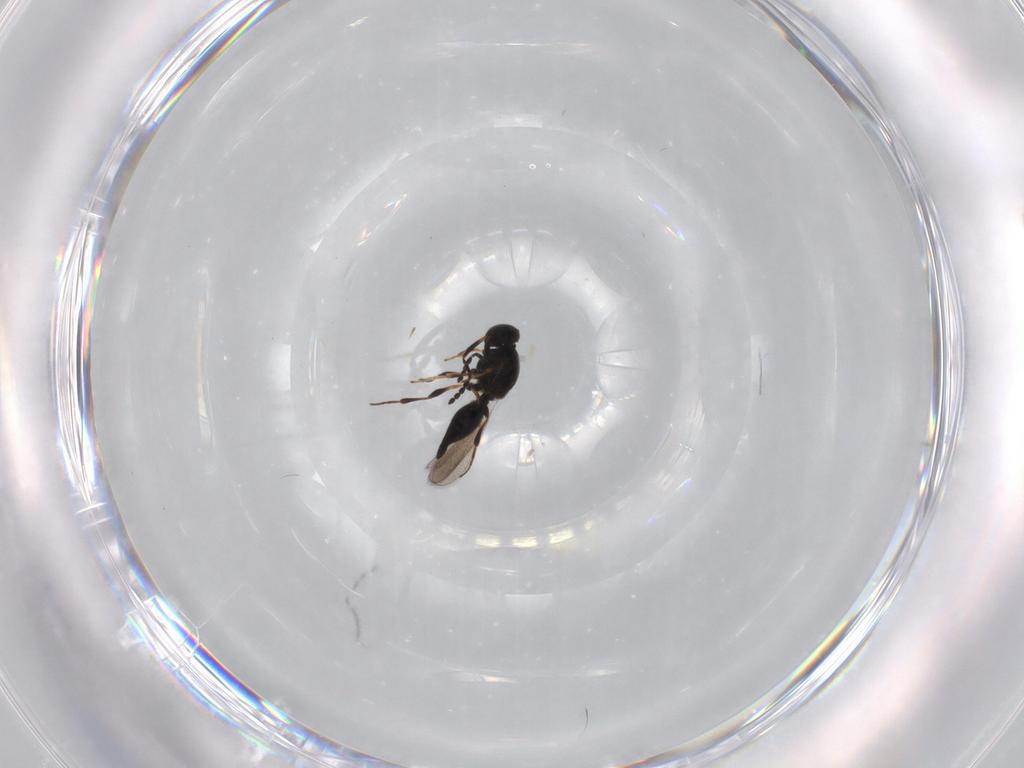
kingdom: Animalia
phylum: Arthropoda
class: Insecta
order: Hymenoptera
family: Platygastridae
